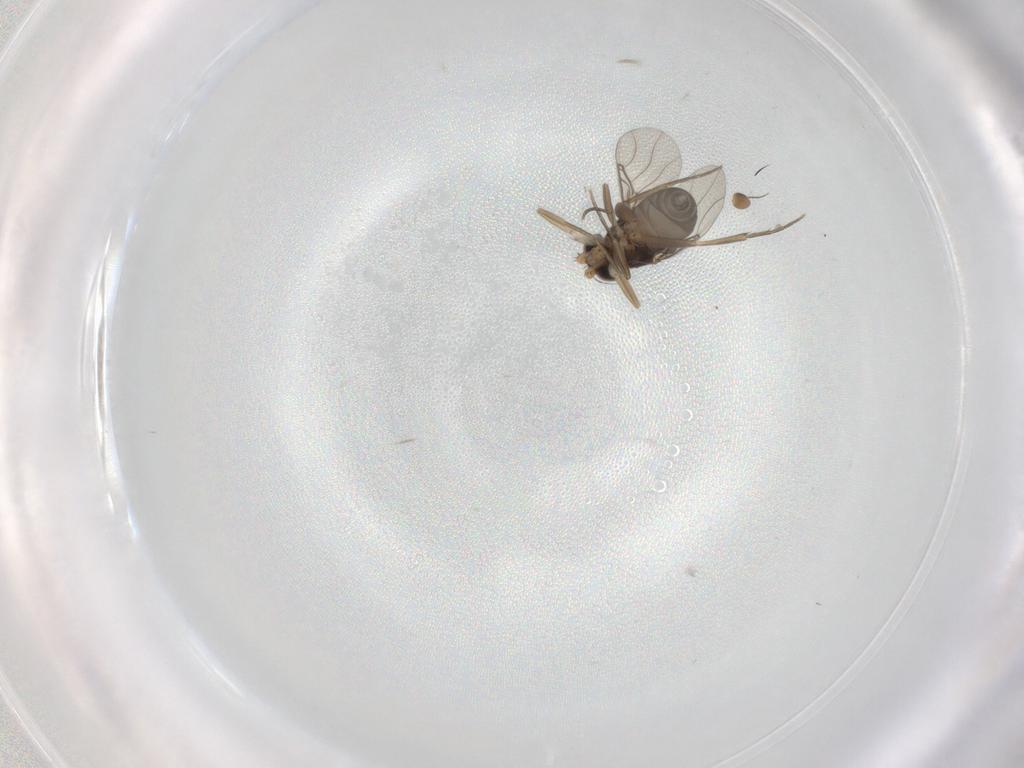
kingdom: Animalia
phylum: Arthropoda
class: Insecta
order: Diptera
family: Phoridae
